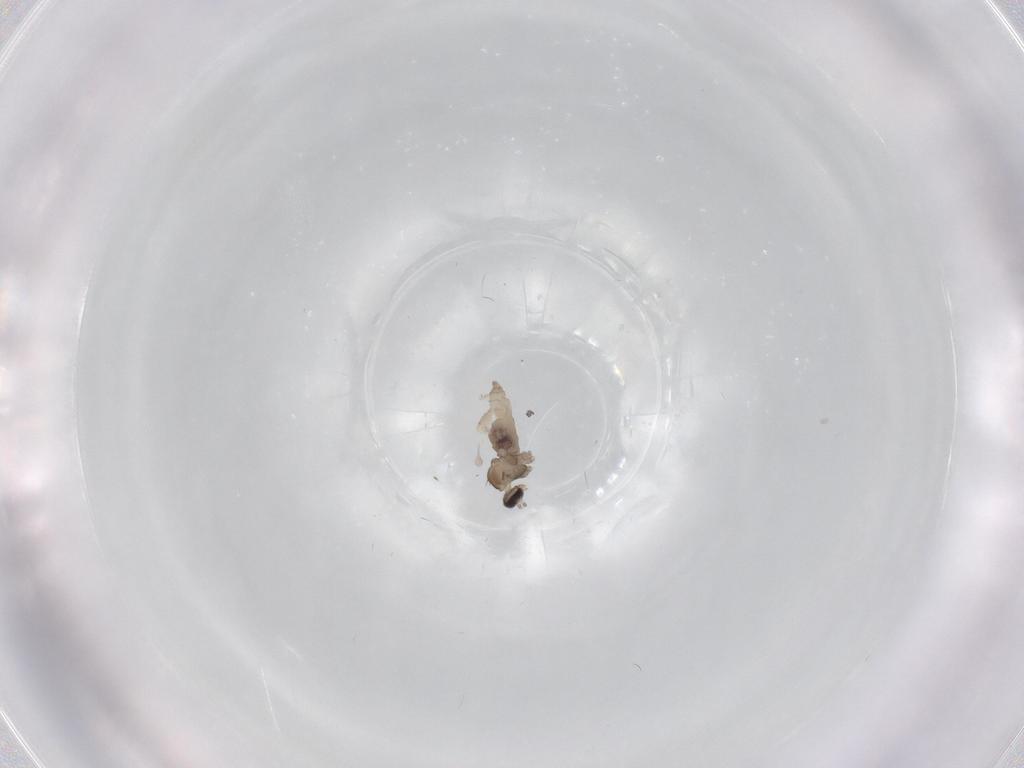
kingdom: Animalia
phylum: Arthropoda
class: Insecta
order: Diptera
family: Cecidomyiidae
